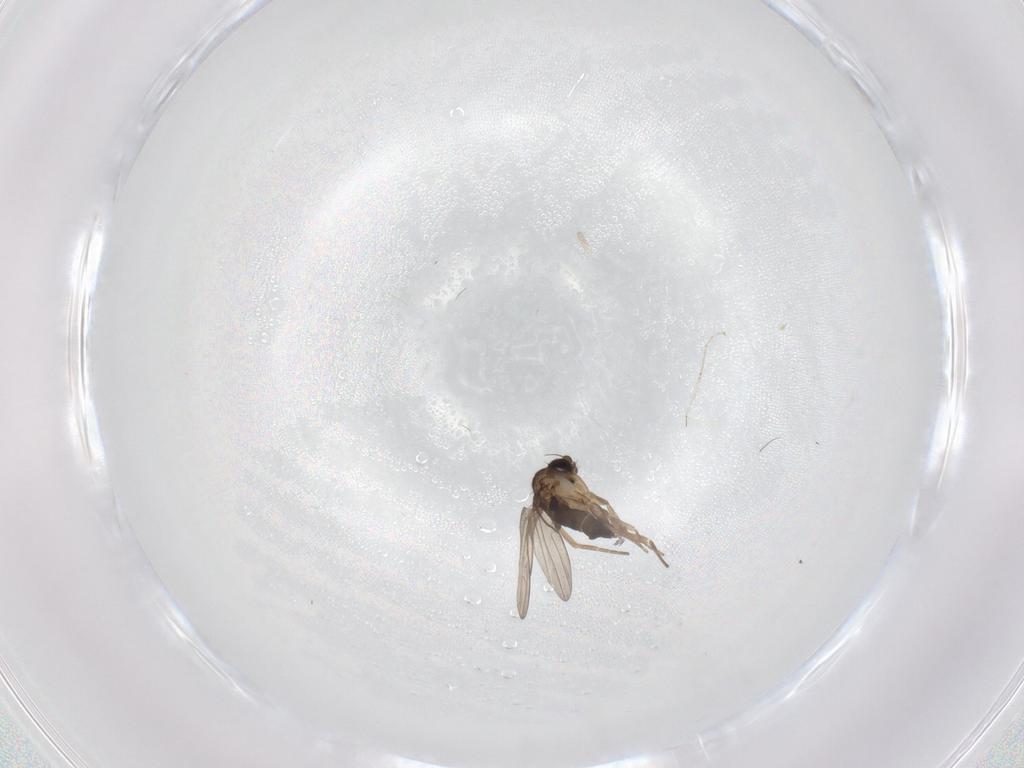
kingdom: Animalia
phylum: Arthropoda
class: Insecta
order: Diptera
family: Phoridae
